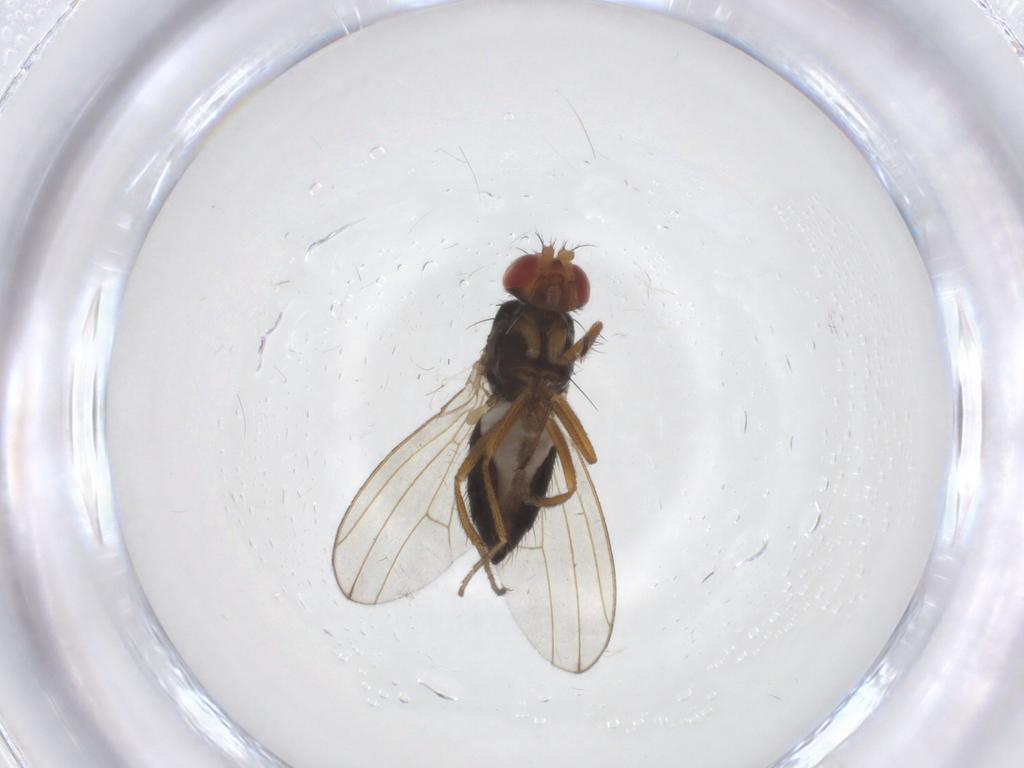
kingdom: Animalia
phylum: Arthropoda
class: Insecta
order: Diptera
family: Drosophilidae
